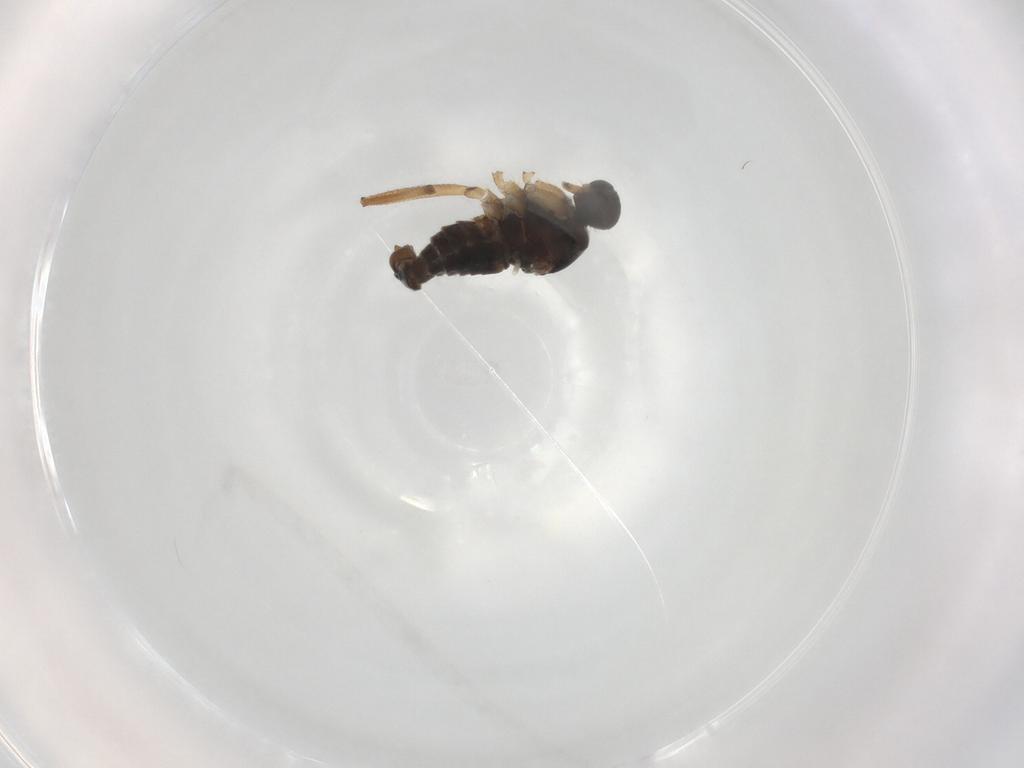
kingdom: Animalia
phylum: Arthropoda
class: Insecta
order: Diptera
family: Hybotidae
